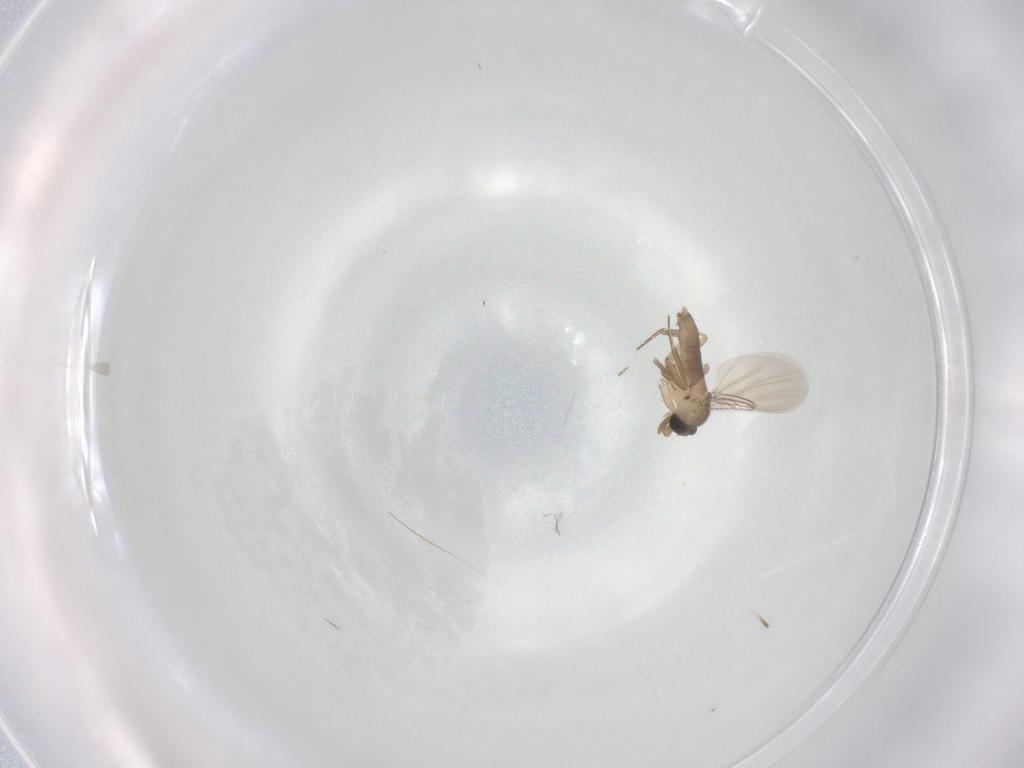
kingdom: Animalia
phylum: Arthropoda
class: Insecta
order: Diptera
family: Phoridae
